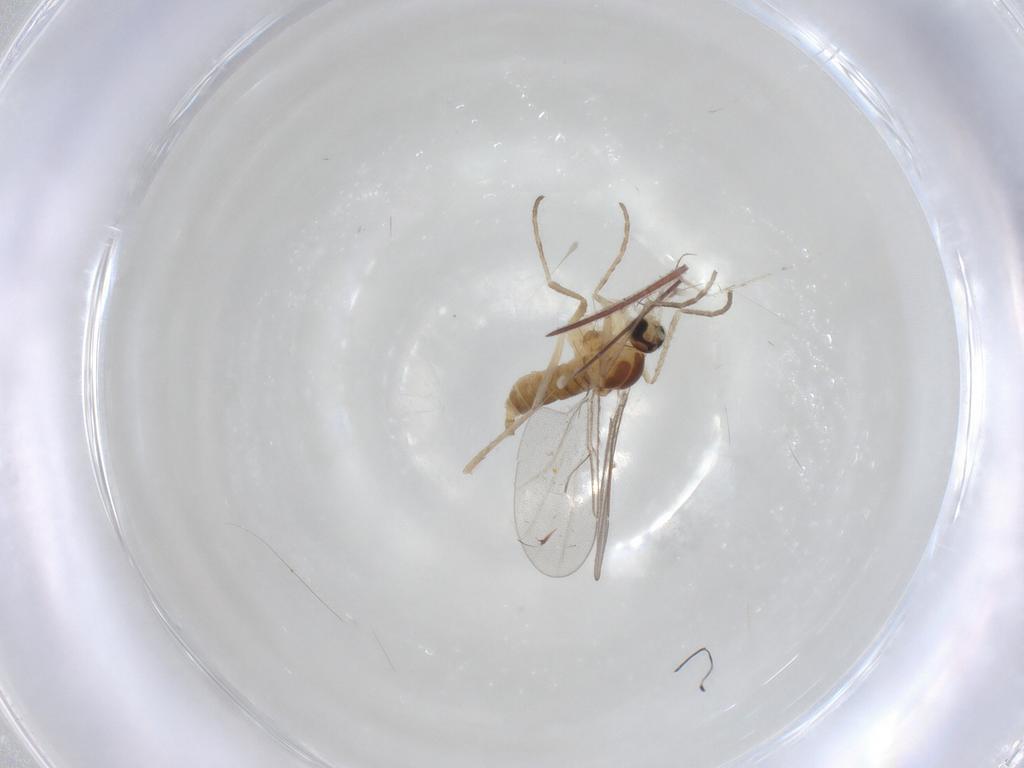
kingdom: Animalia
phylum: Arthropoda
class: Insecta
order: Diptera
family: Cecidomyiidae
